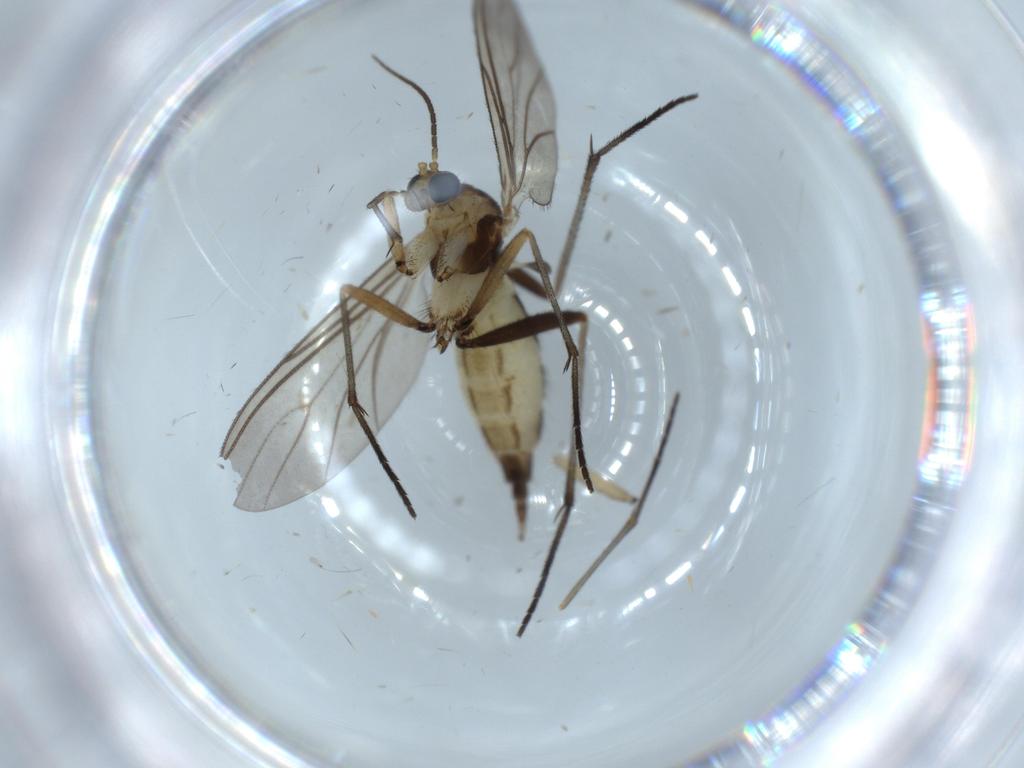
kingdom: Animalia
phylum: Arthropoda
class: Insecta
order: Diptera
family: Sciaridae
